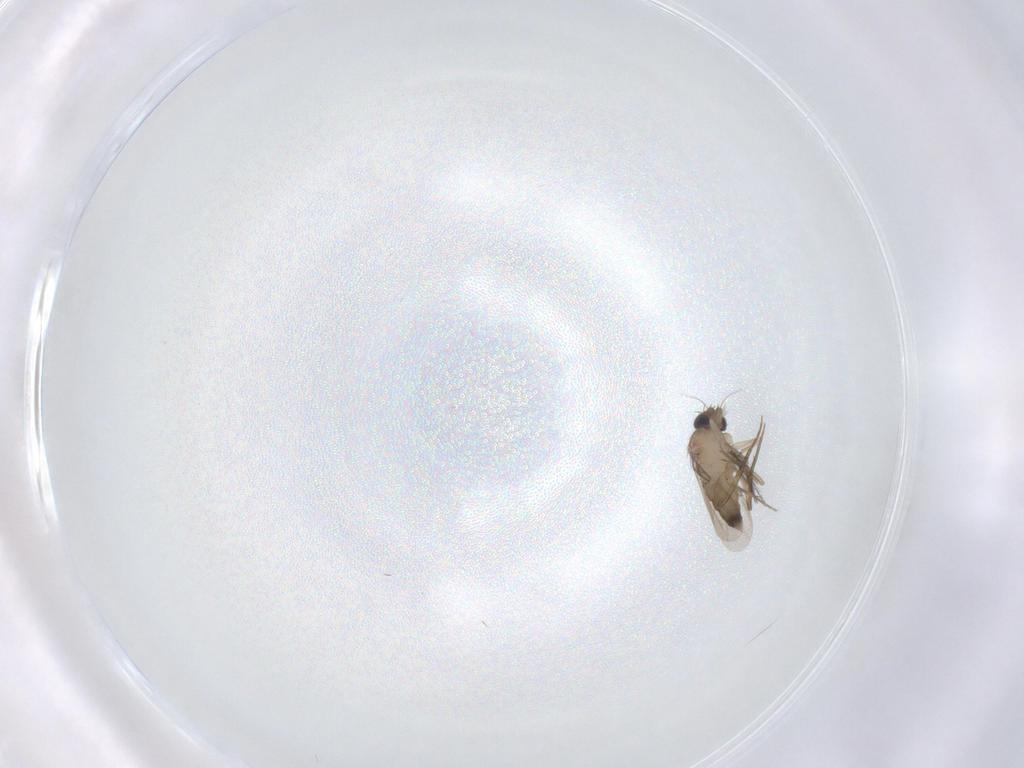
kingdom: Animalia
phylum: Arthropoda
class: Insecta
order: Diptera
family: Phoridae
